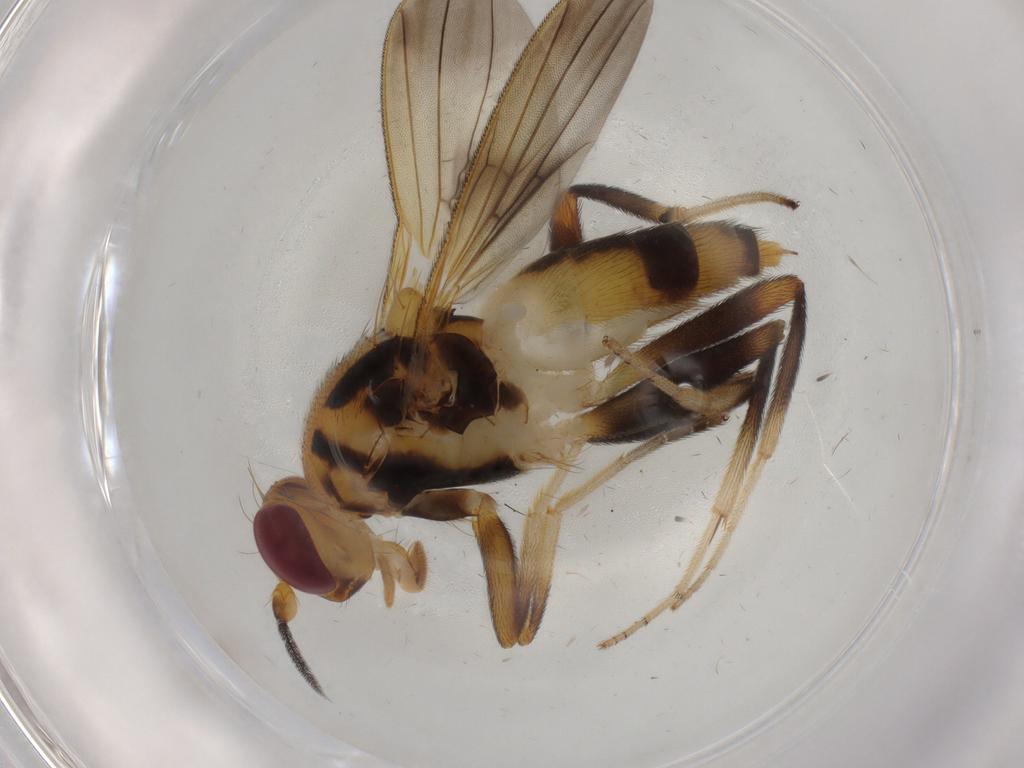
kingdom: Animalia
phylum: Arthropoda
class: Insecta
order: Diptera
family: Dolichopodidae
